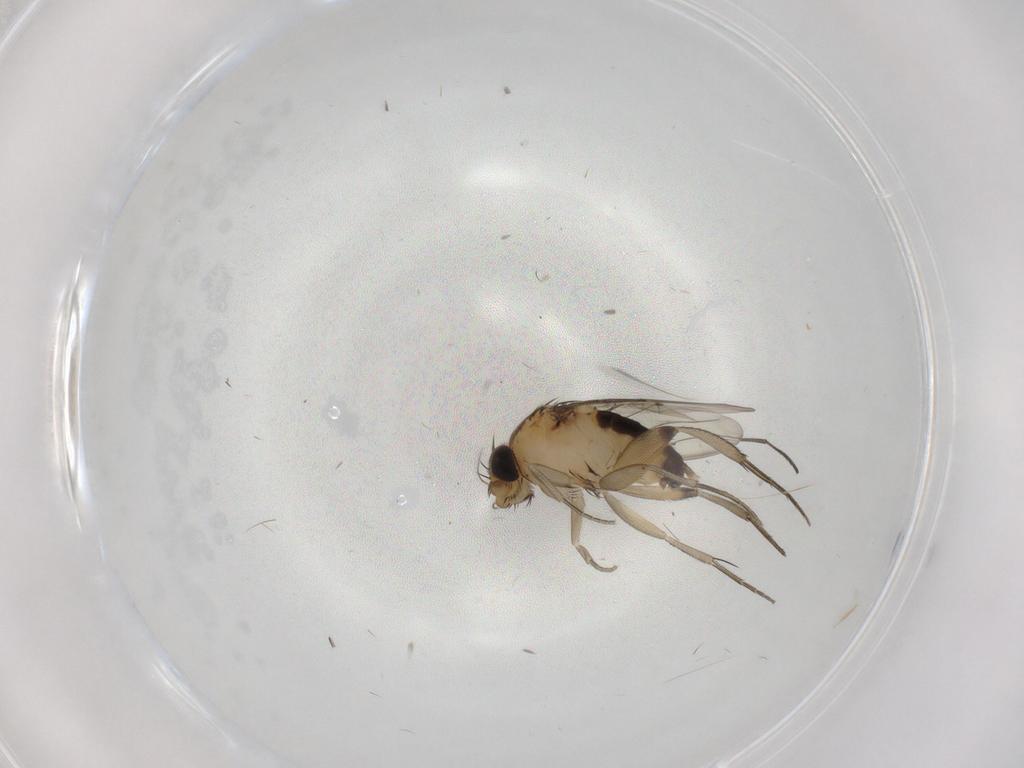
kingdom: Animalia
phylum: Arthropoda
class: Insecta
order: Diptera
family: Phoridae
